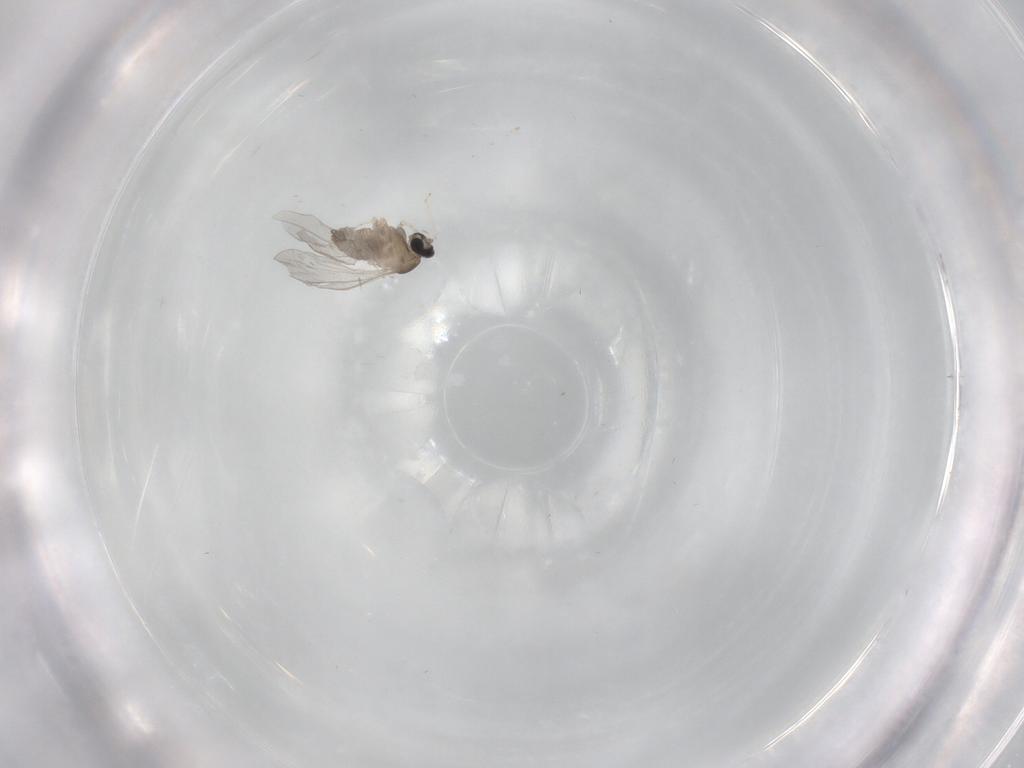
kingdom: Animalia
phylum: Arthropoda
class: Insecta
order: Diptera
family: Cecidomyiidae
